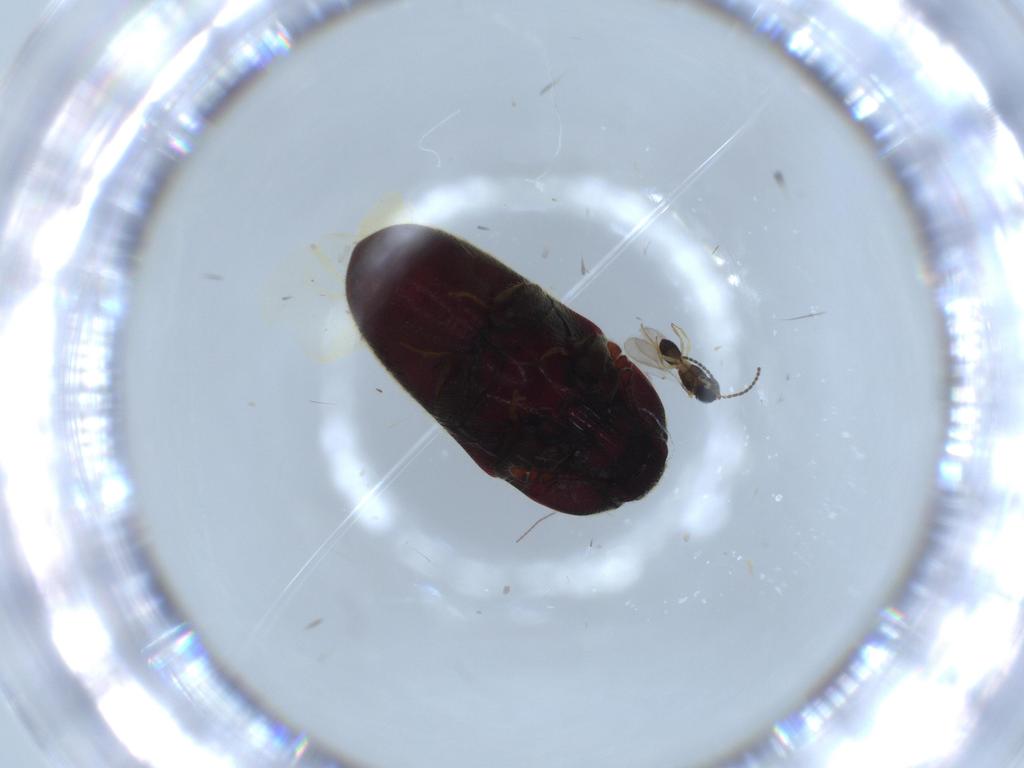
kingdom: Animalia
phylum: Arthropoda
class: Insecta
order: Coleoptera
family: Throscidae
